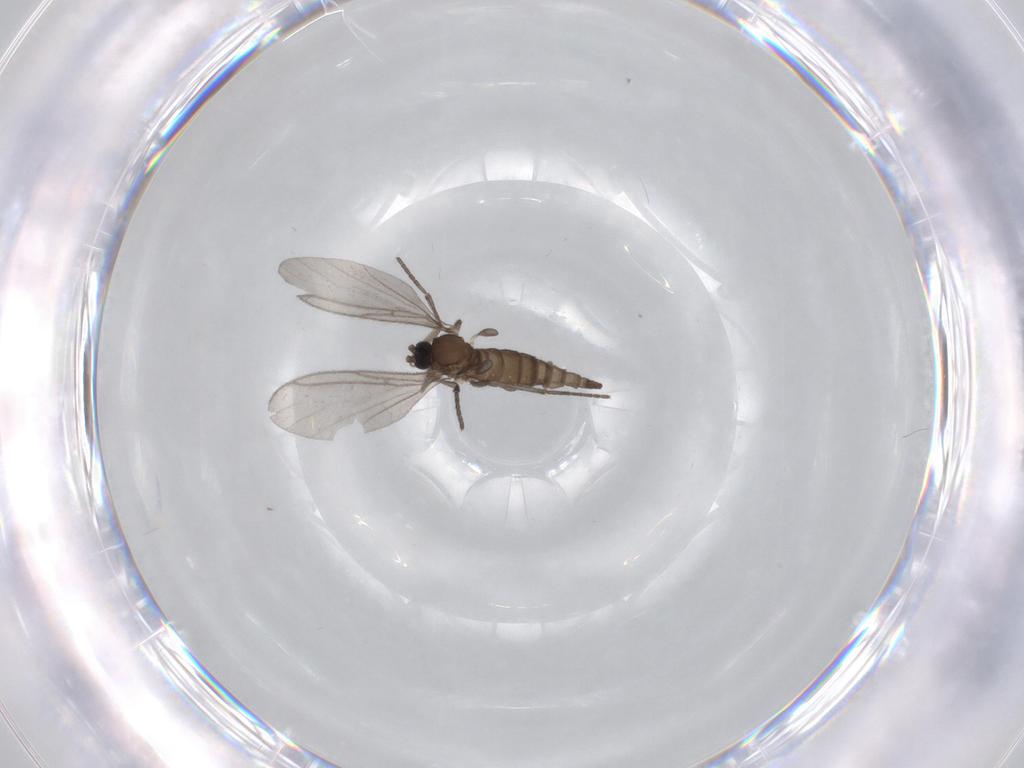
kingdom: Animalia
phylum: Arthropoda
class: Insecta
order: Diptera
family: Sciaridae
